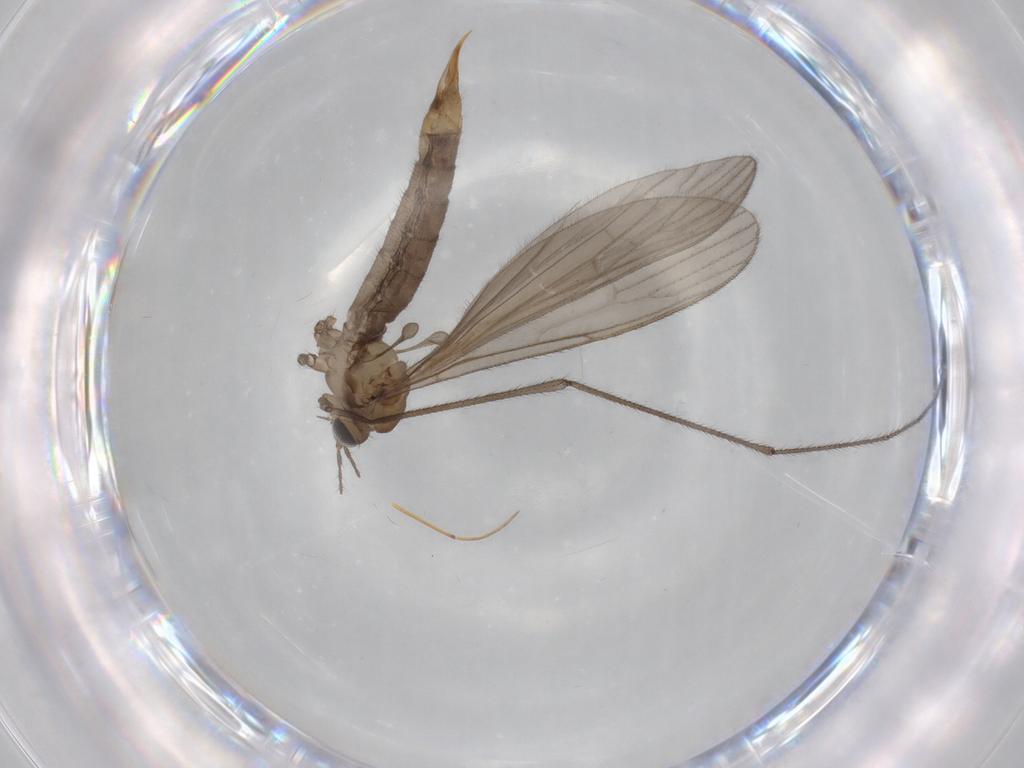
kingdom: Animalia
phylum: Arthropoda
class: Insecta
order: Diptera
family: Limoniidae
